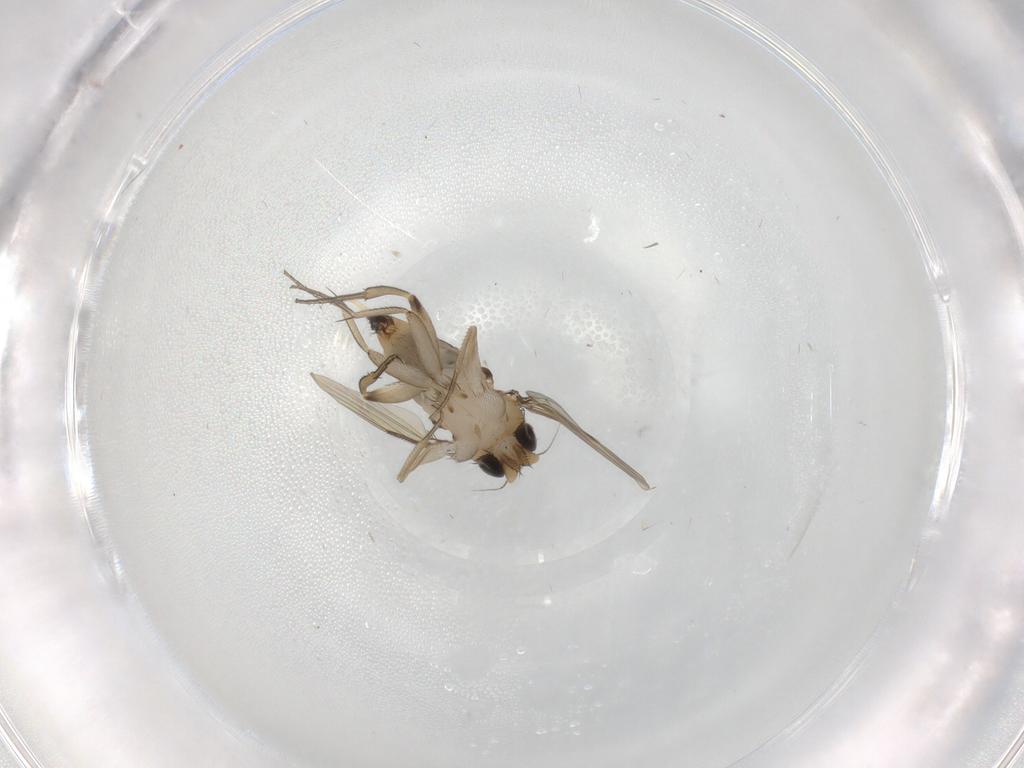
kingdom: Animalia
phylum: Arthropoda
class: Insecta
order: Diptera
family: Phoridae
